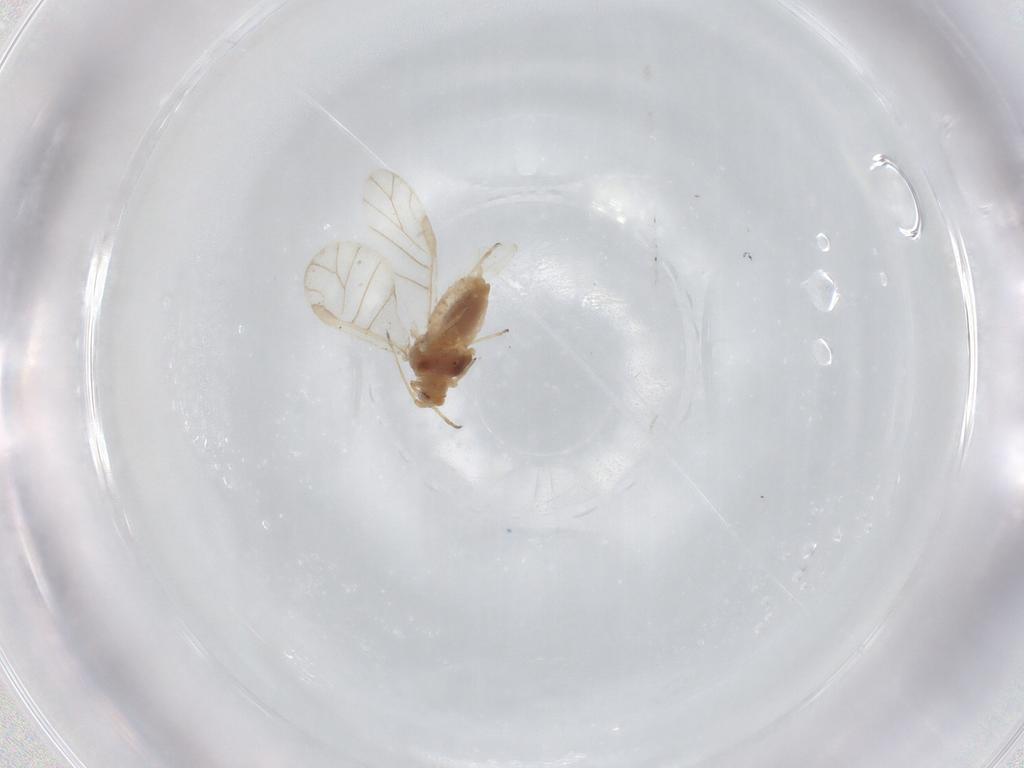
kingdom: Animalia
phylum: Arthropoda
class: Insecta
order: Hemiptera
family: Aphididae
